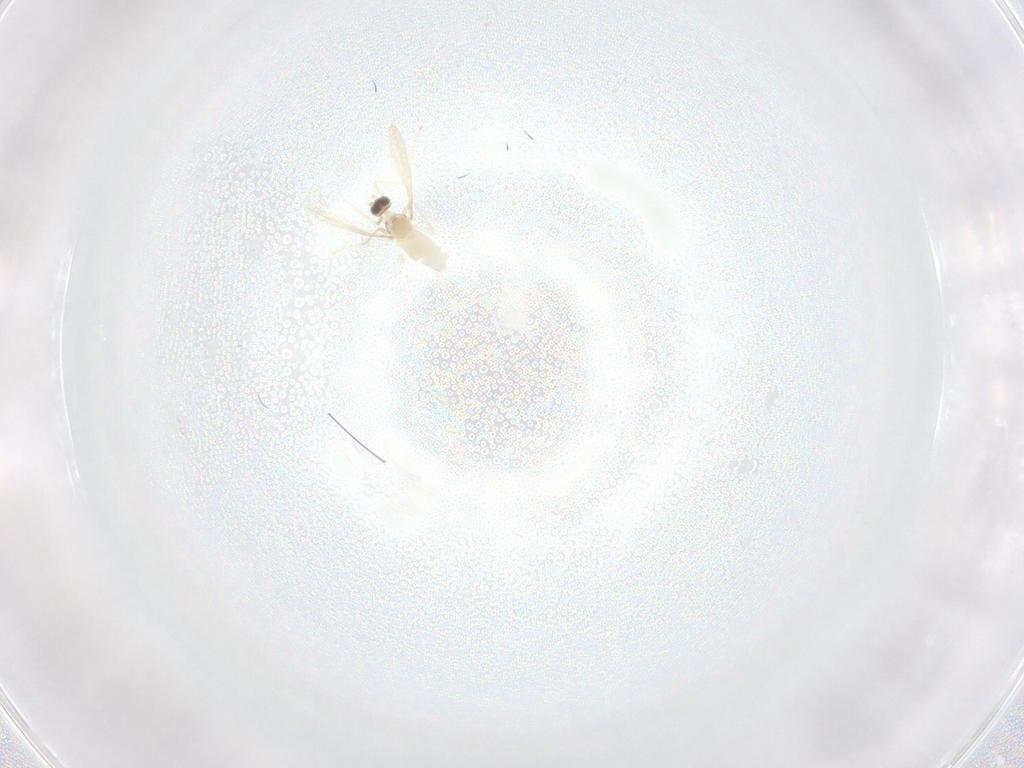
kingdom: Animalia
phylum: Arthropoda
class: Insecta
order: Diptera
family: Cecidomyiidae
